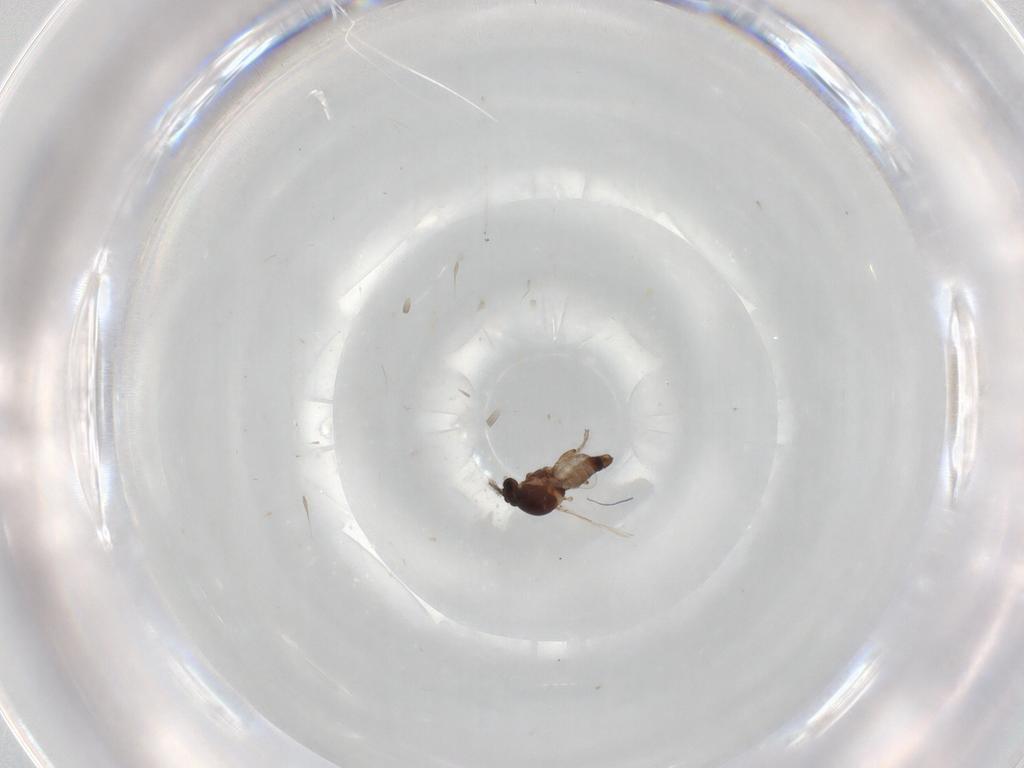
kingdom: Animalia
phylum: Arthropoda
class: Insecta
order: Diptera
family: Ceratopogonidae
